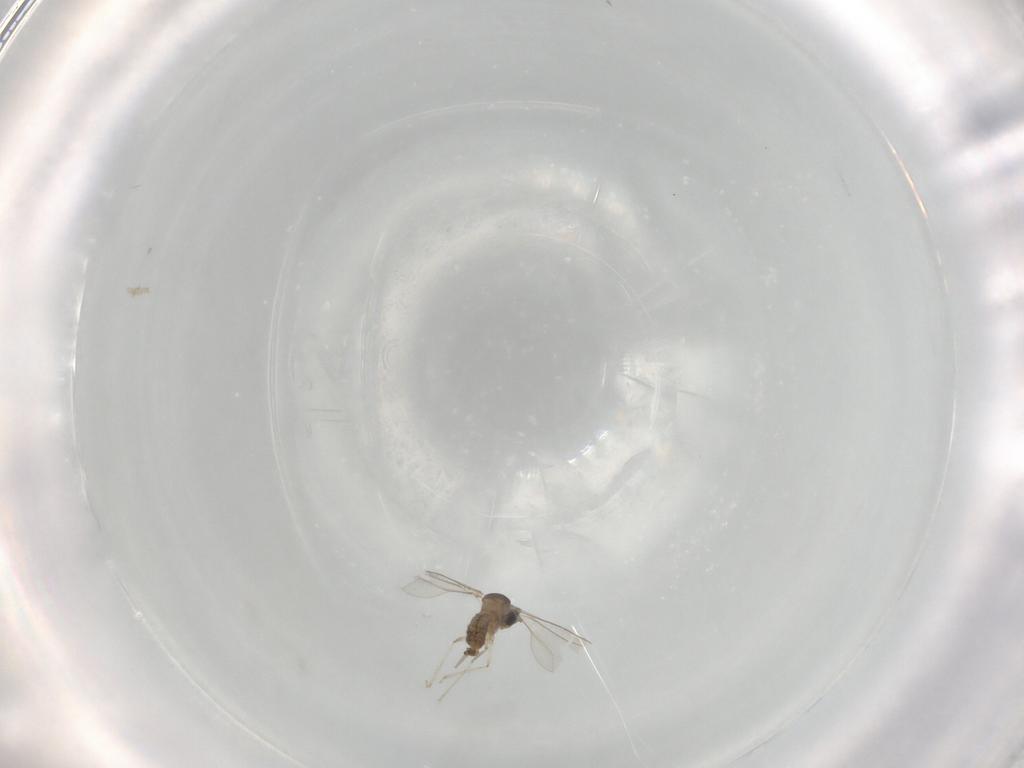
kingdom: Animalia
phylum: Arthropoda
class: Insecta
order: Diptera
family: Cecidomyiidae
